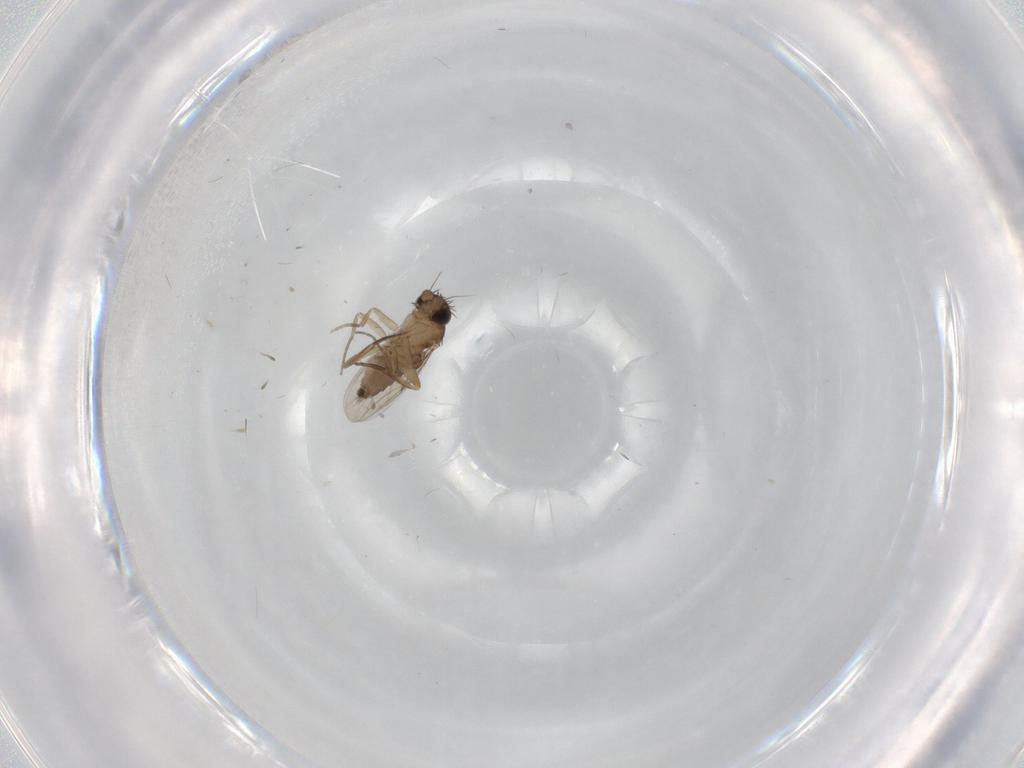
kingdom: Animalia
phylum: Arthropoda
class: Insecta
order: Diptera
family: Phoridae
